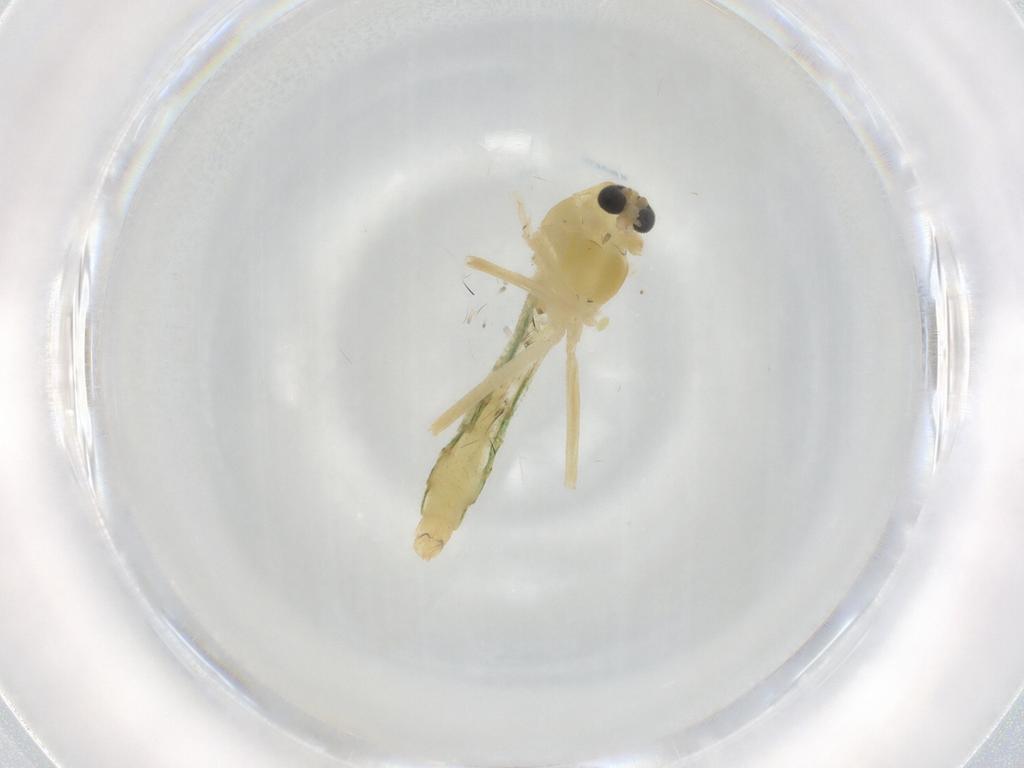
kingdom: Animalia
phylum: Arthropoda
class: Insecta
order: Diptera
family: Chironomidae
